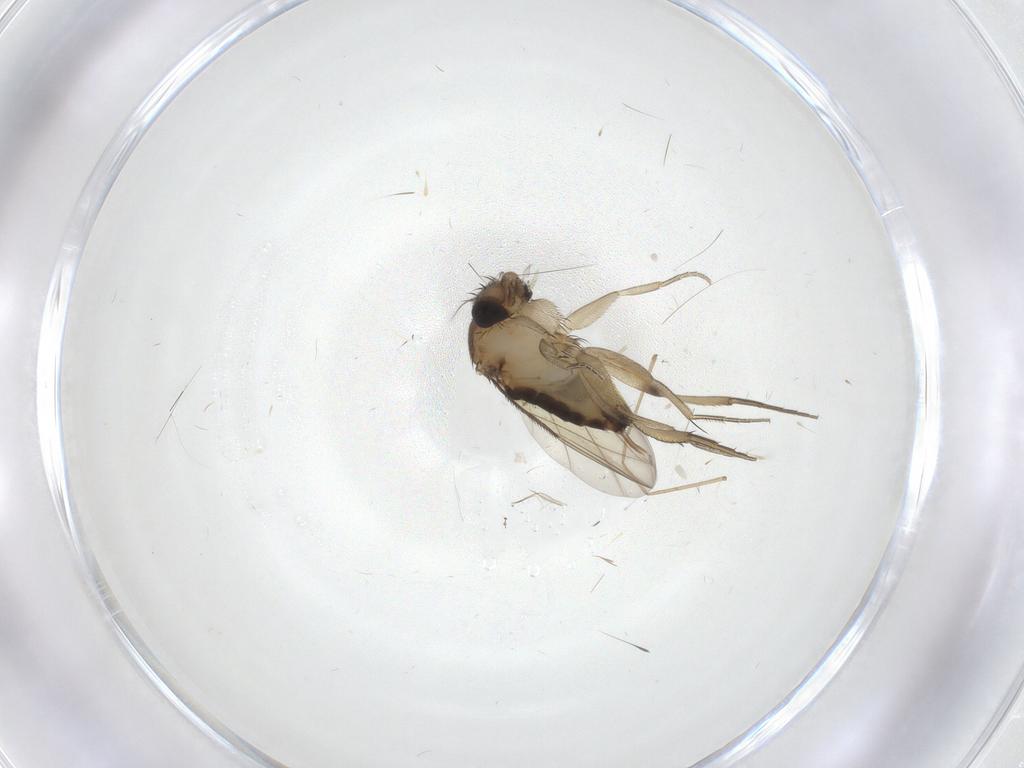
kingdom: Animalia
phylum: Arthropoda
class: Insecta
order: Diptera
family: Phoridae
